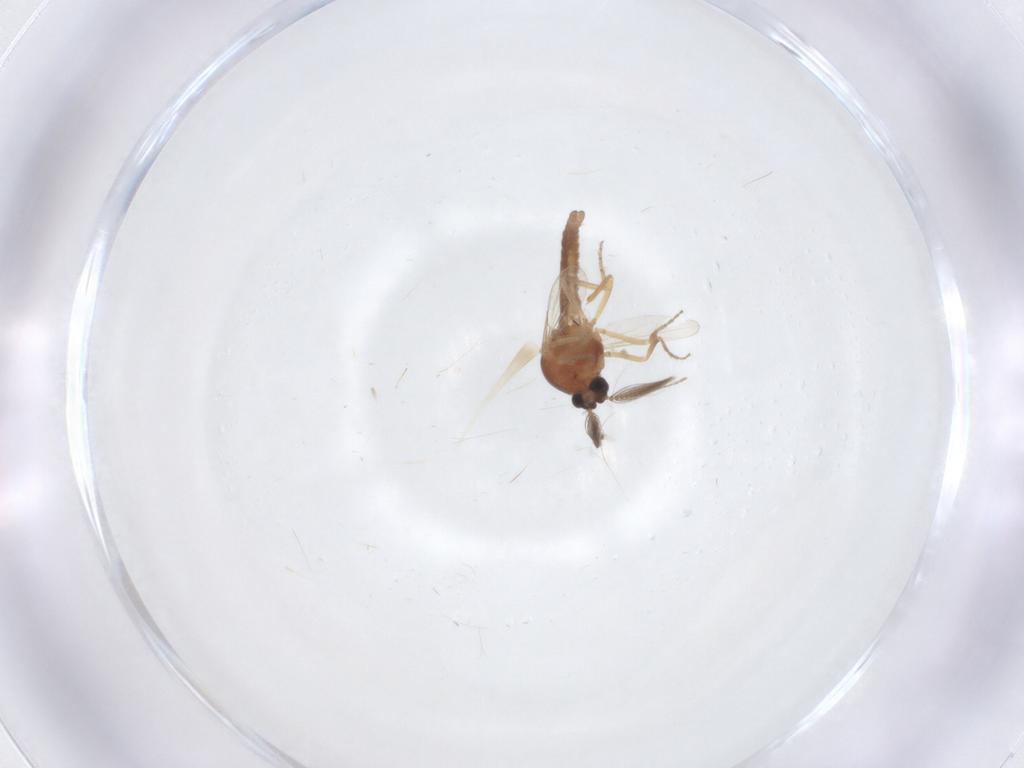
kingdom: Animalia
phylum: Arthropoda
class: Insecta
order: Diptera
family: Ceratopogonidae
